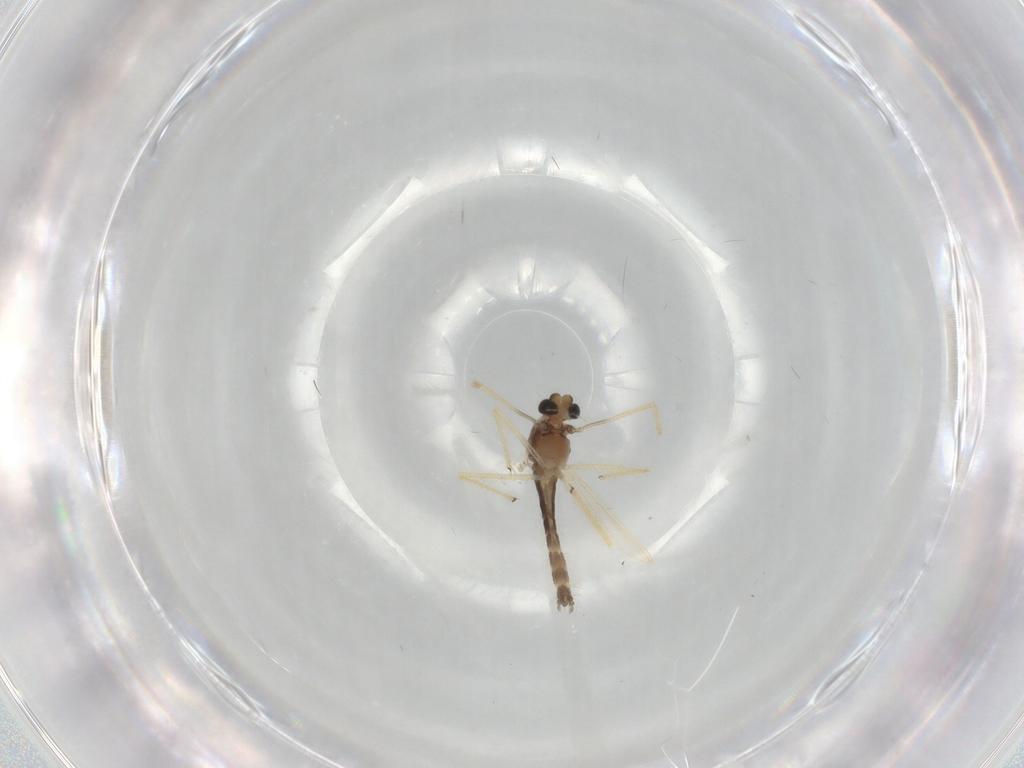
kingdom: Animalia
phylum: Arthropoda
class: Insecta
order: Diptera
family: Chironomidae
